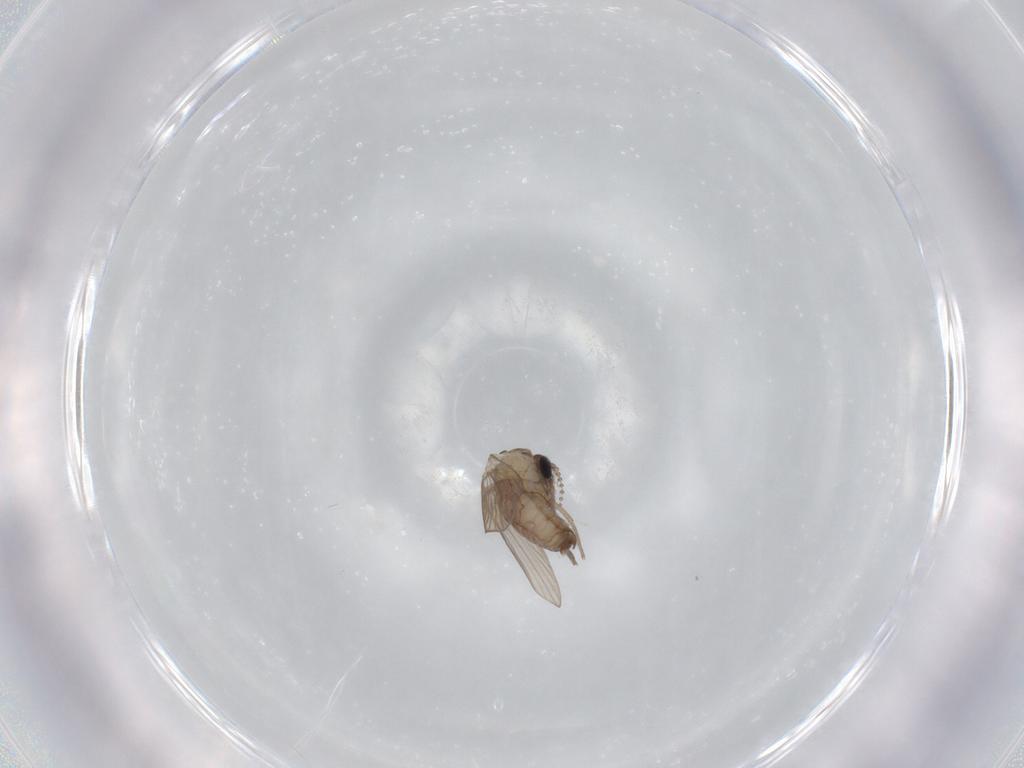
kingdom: Animalia
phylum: Arthropoda
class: Insecta
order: Diptera
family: Psychodidae
